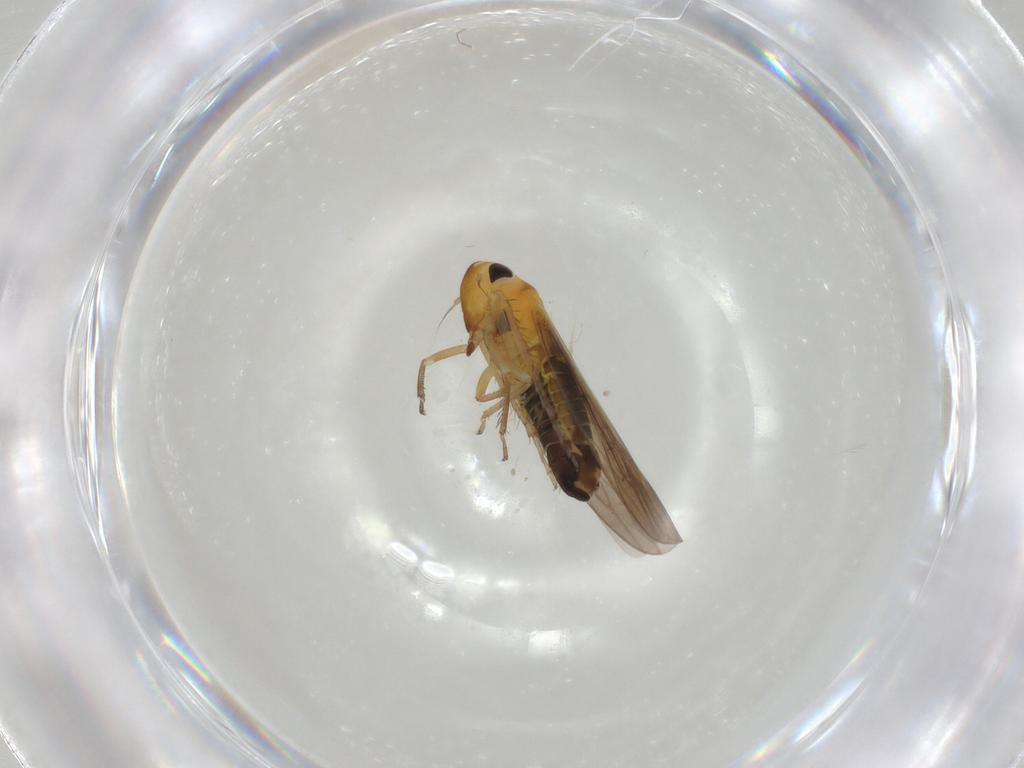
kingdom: Animalia
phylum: Arthropoda
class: Insecta
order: Hemiptera
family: Cicadellidae
